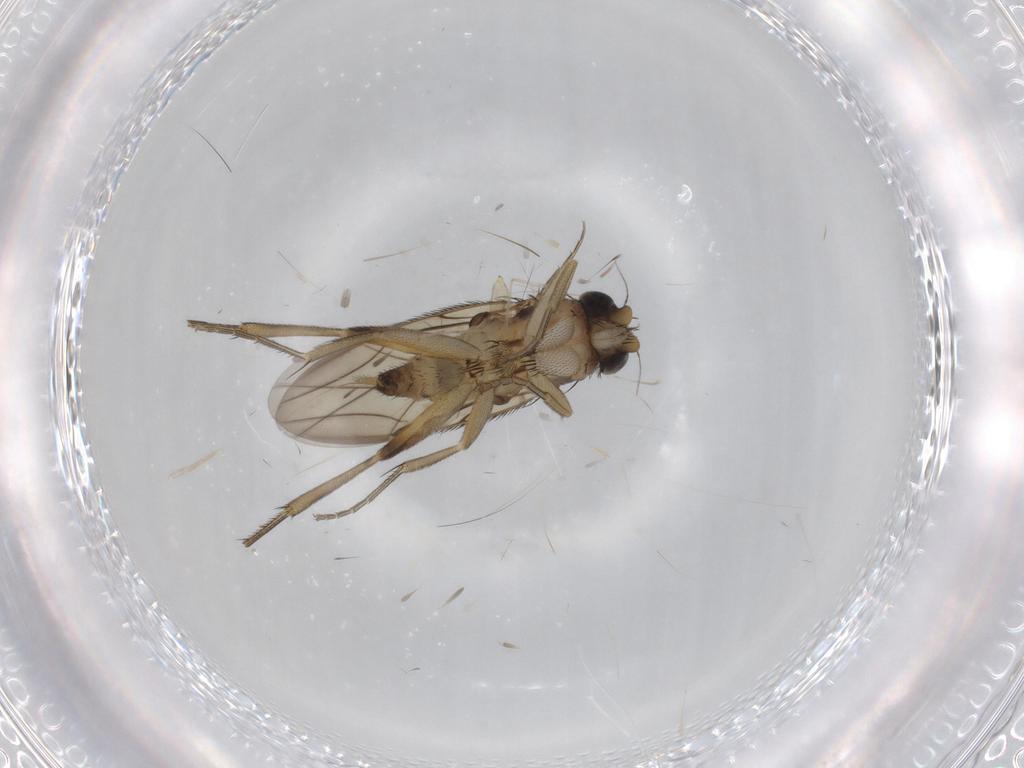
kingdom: Animalia
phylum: Arthropoda
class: Insecta
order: Diptera
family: Phoridae
